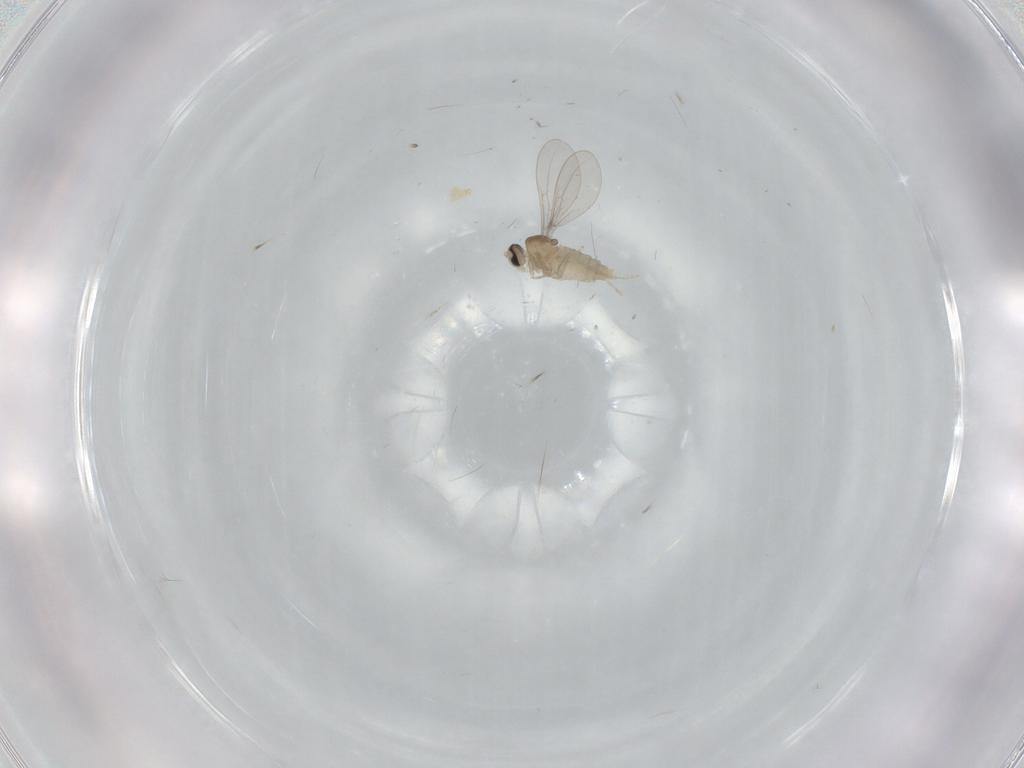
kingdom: Animalia
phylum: Arthropoda
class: Insecta
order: Diptera
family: Cecidomyiidae
